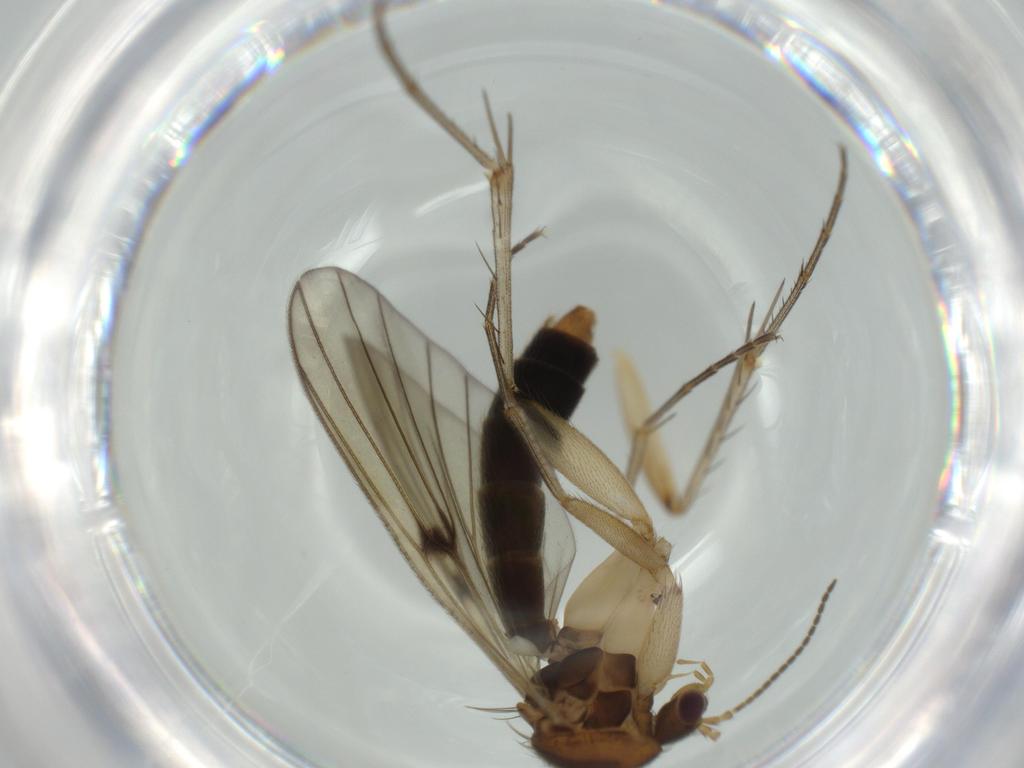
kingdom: Animalia
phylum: Arthropoda
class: Insecta
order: Diptera
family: Mycetophilidae
